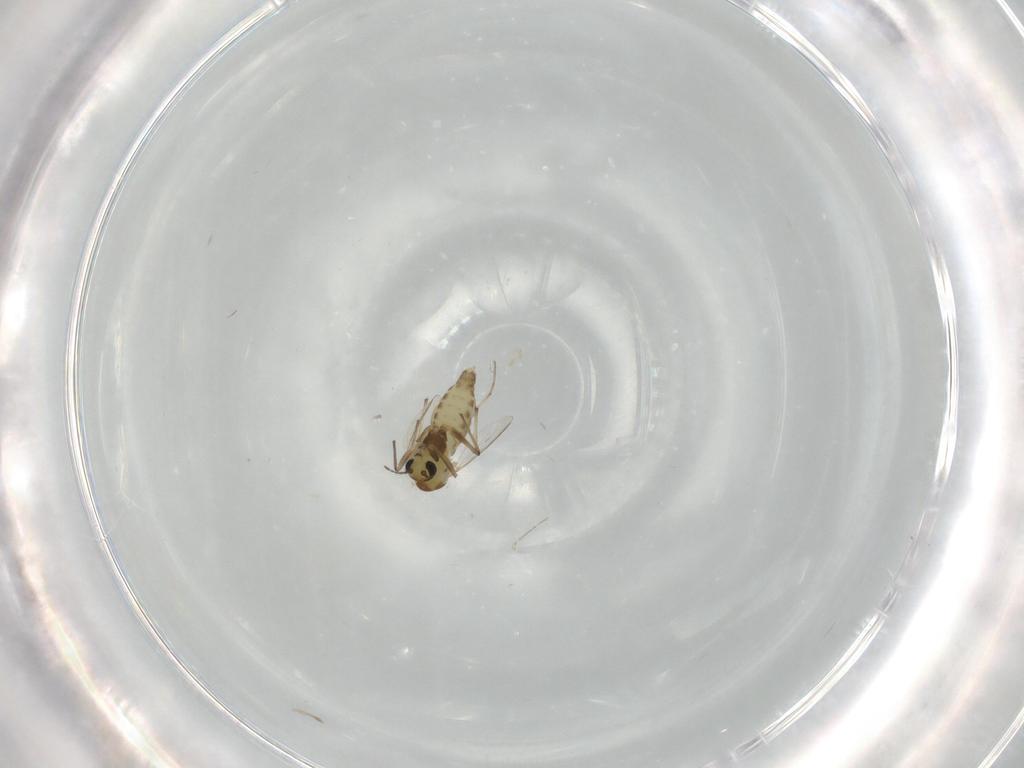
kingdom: Animalia
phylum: Arthropoda
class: Insecta
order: Diptera
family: Chironomidae
